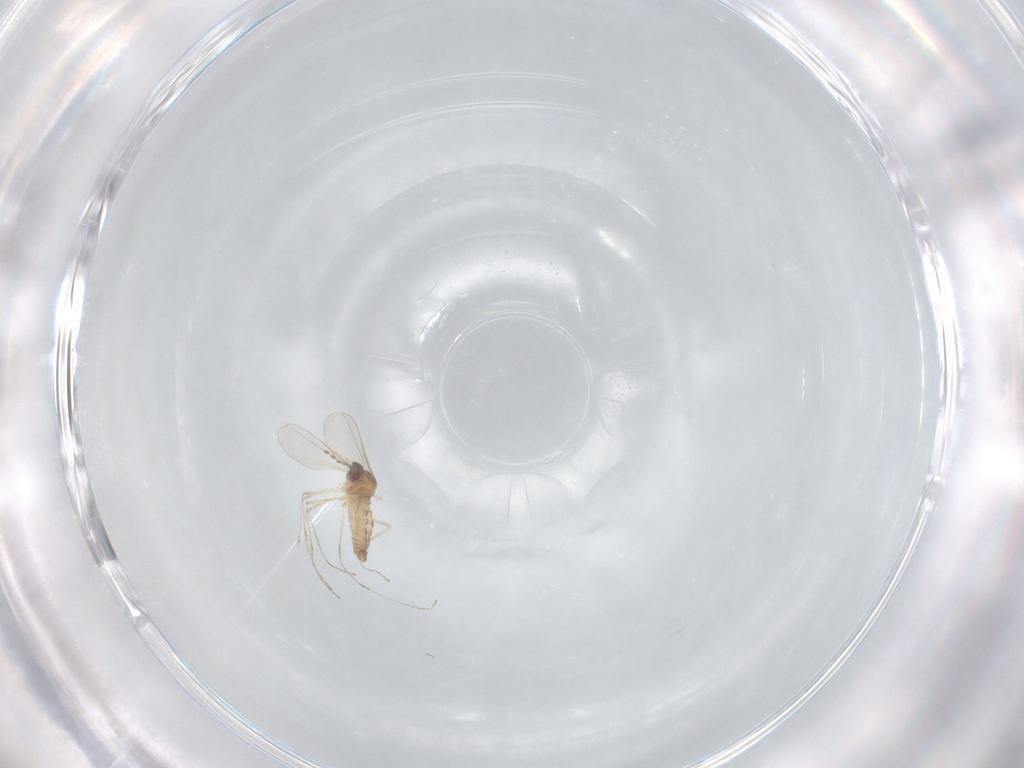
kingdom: Animalia
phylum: Arthropoda
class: Insecta
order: Diptera
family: Cecidomyiidae
